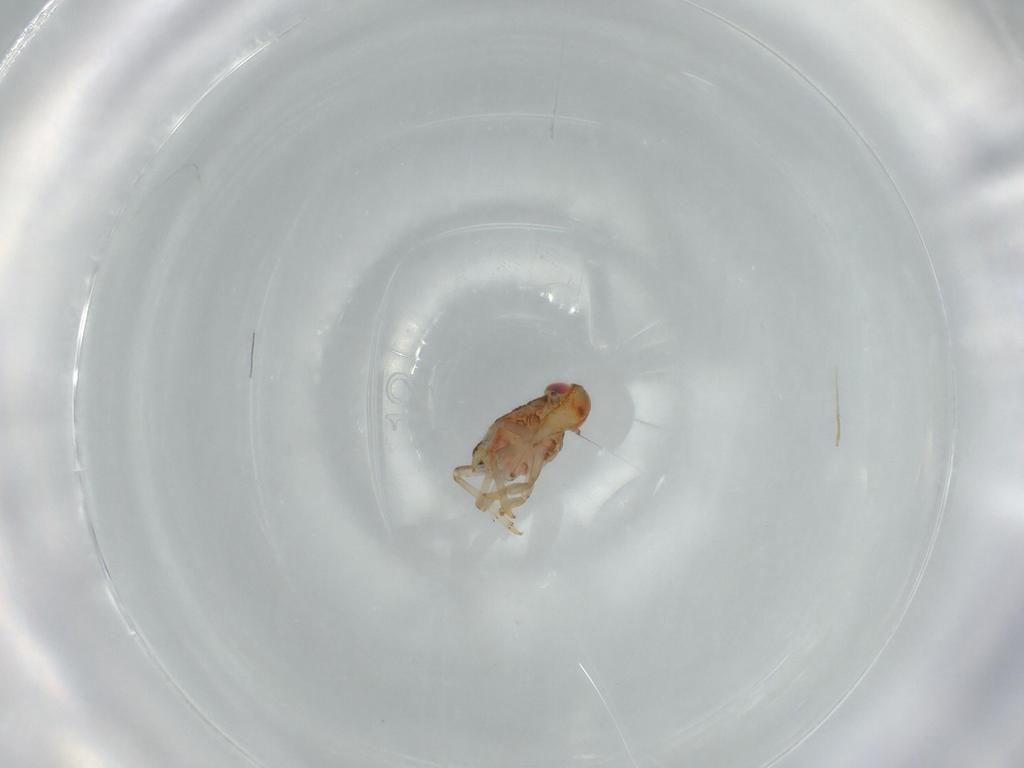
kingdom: Animalia
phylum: Arthropoda
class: Insecta
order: Hemiptera
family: Issidae
